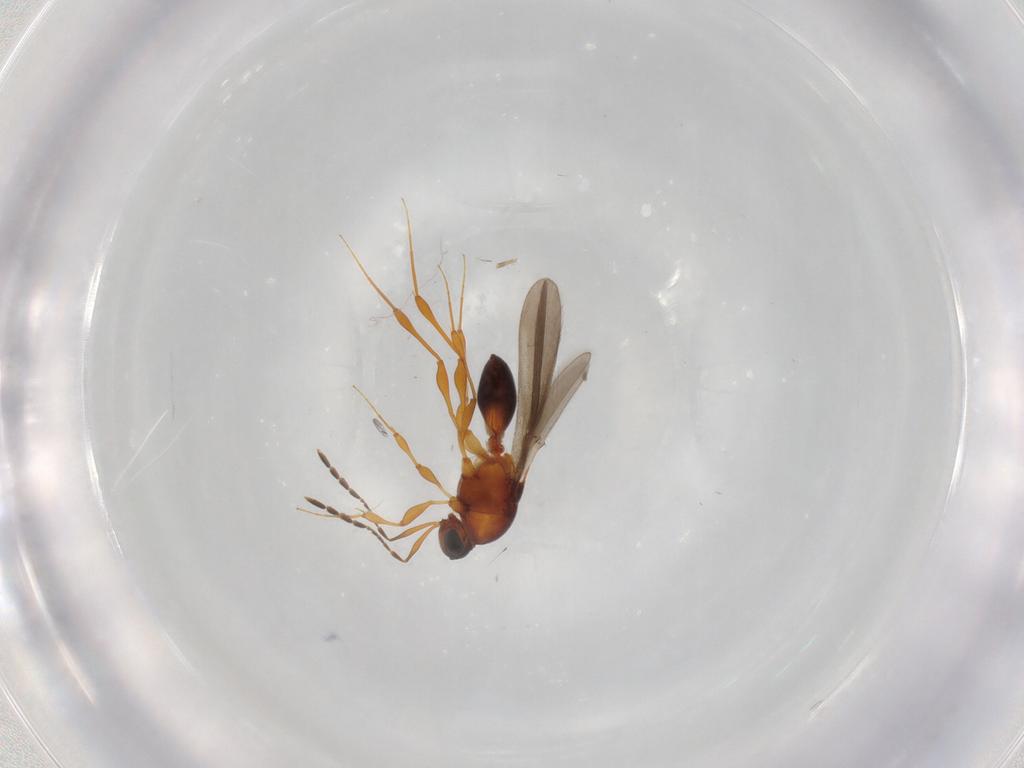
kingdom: Animalia
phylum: Arthropoda
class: Insecta
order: Hymenoptera
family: Platygastridae
